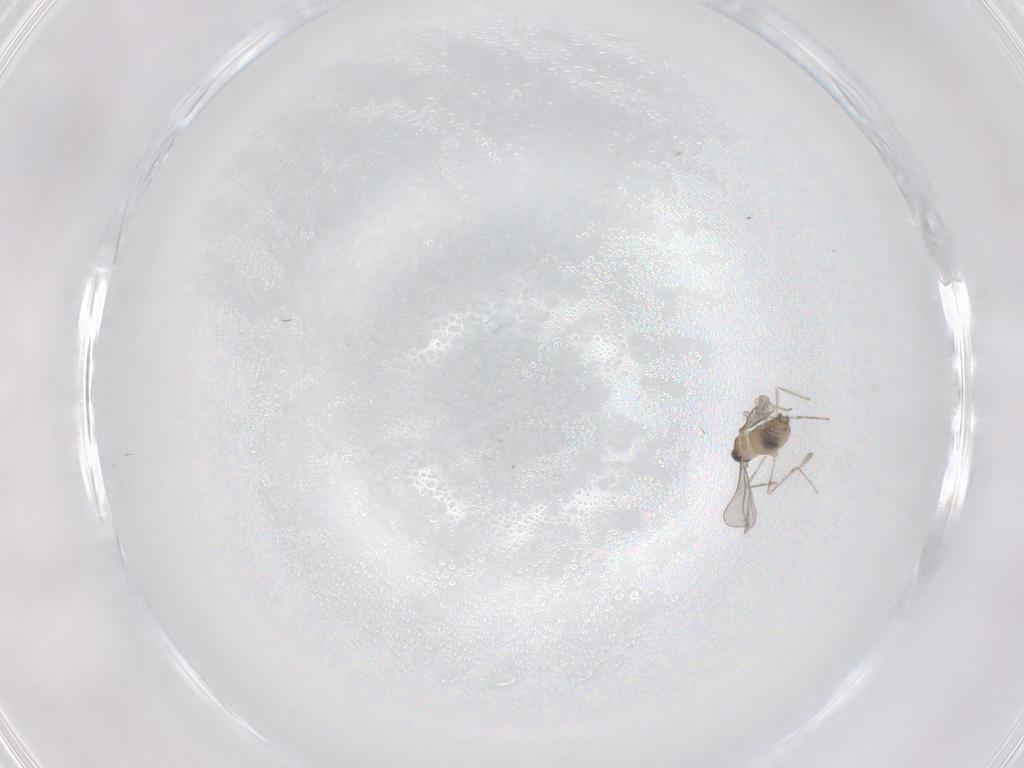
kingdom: Animalia
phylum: Arthropoda
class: Insecta
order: Diptera
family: Cecidomyiidae
